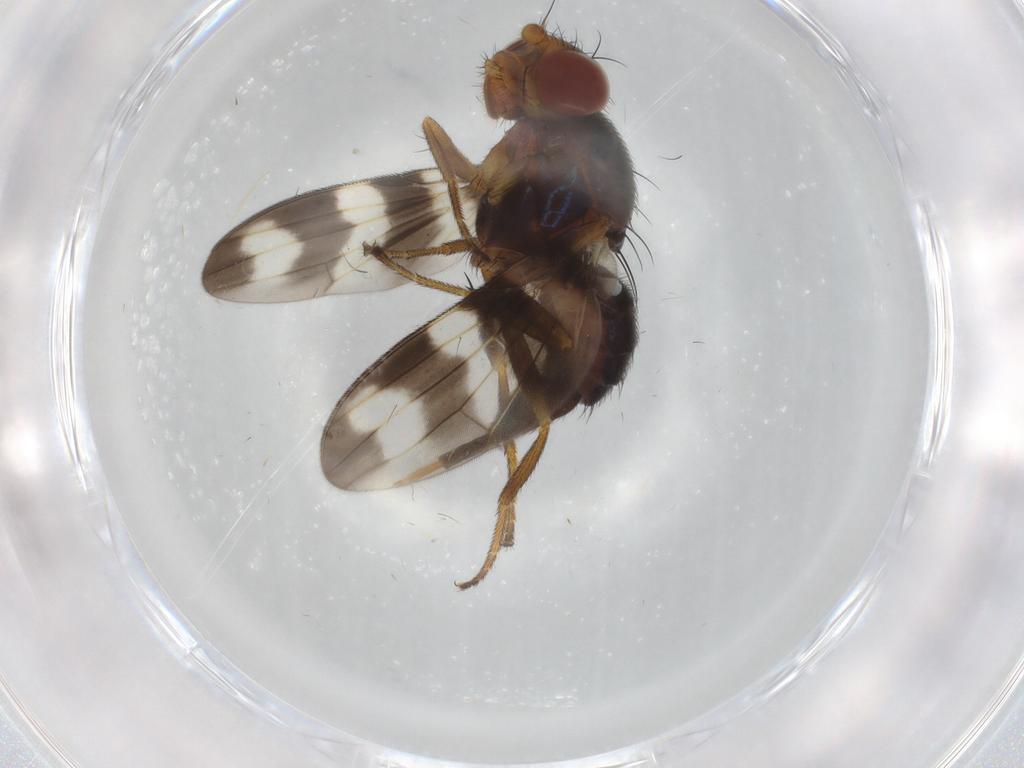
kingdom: Animalia
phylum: Arthropoda
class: Insecta
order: Diptera
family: Ulidiidae
